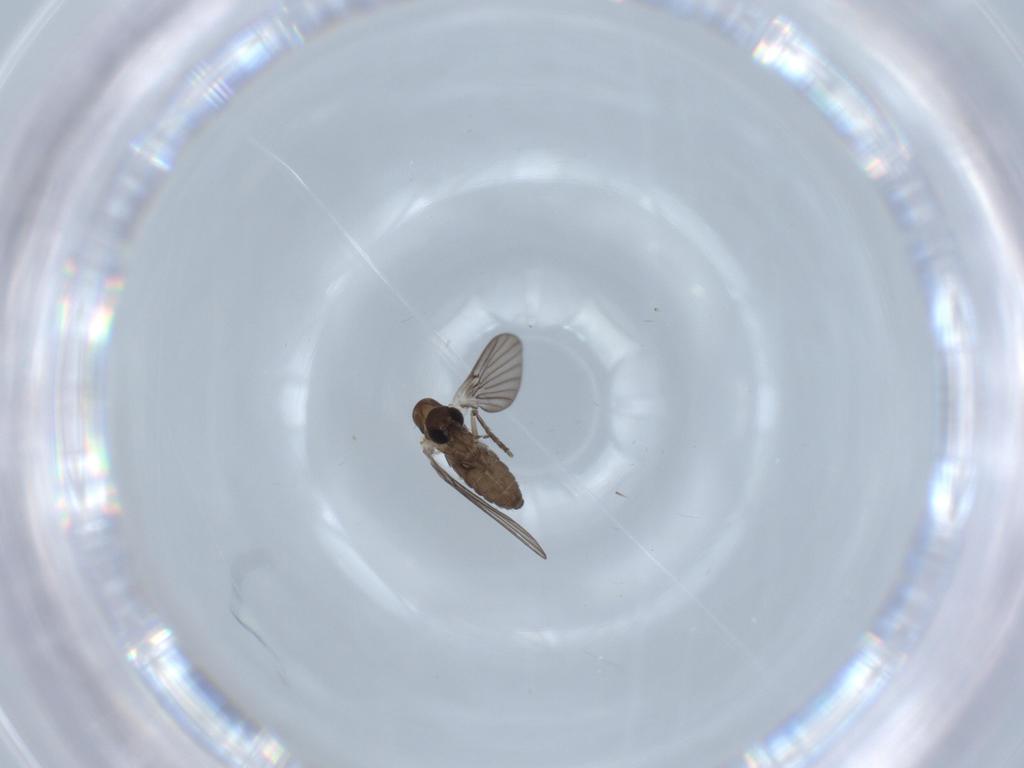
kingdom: Animalia
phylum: Arthropoda
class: Insecta
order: Diptera
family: Psychodidae
